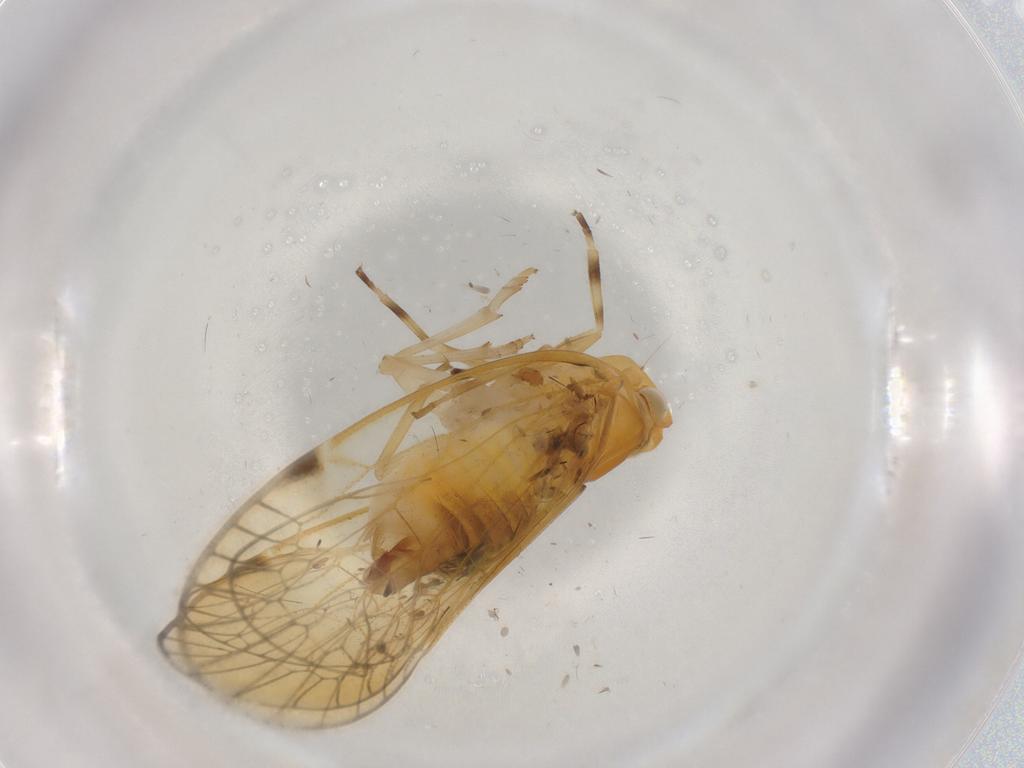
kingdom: Animalia
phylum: Arthropoda
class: Insecta
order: Hemiptera
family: Cixiidae
